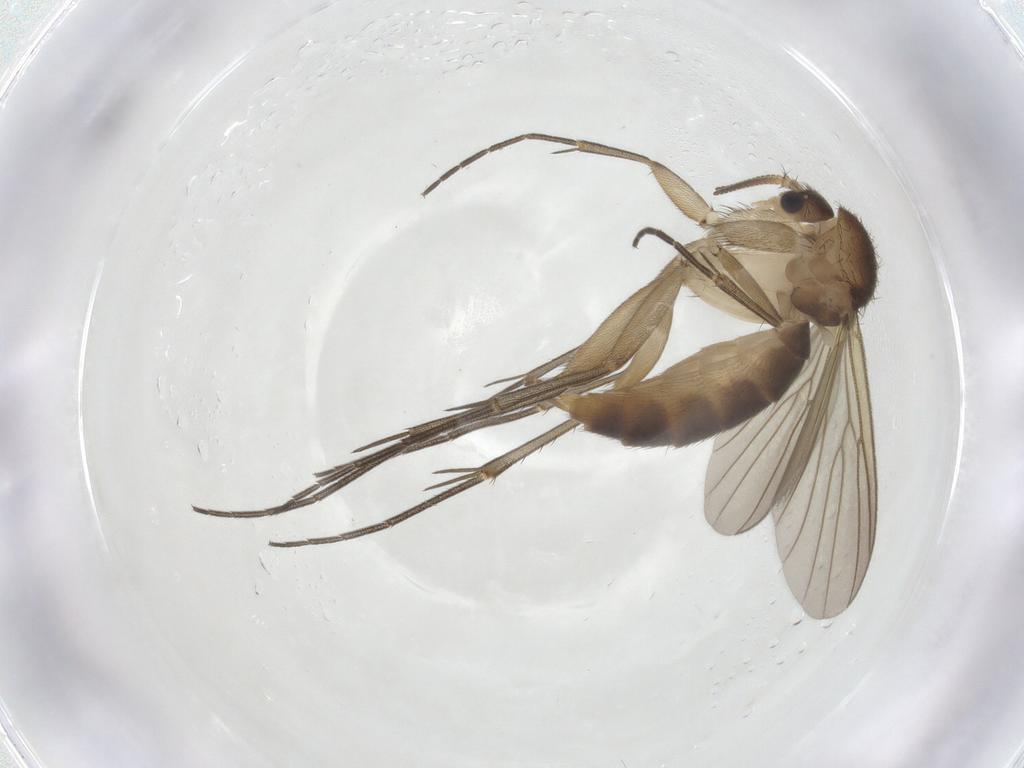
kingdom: Animalia
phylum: Arthropoda
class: Insecta
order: Diptera
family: Mycetophilidae
